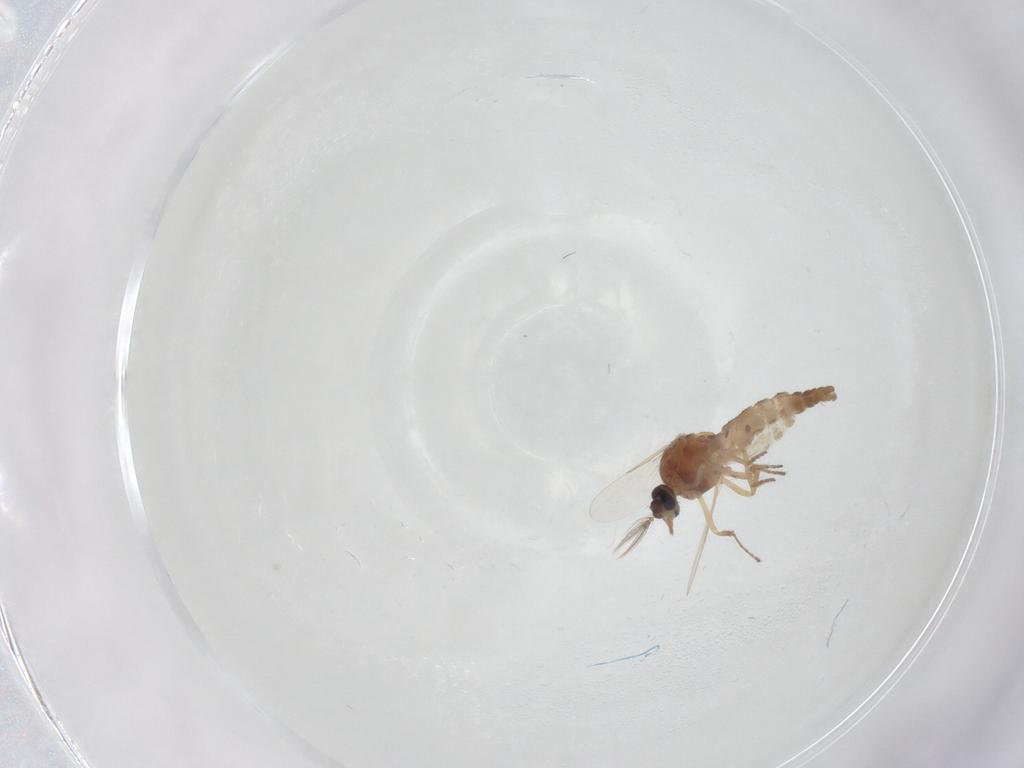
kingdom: Animalia
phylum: Arthropoda
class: Insecta
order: Diptera
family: Ceratopogonidae
